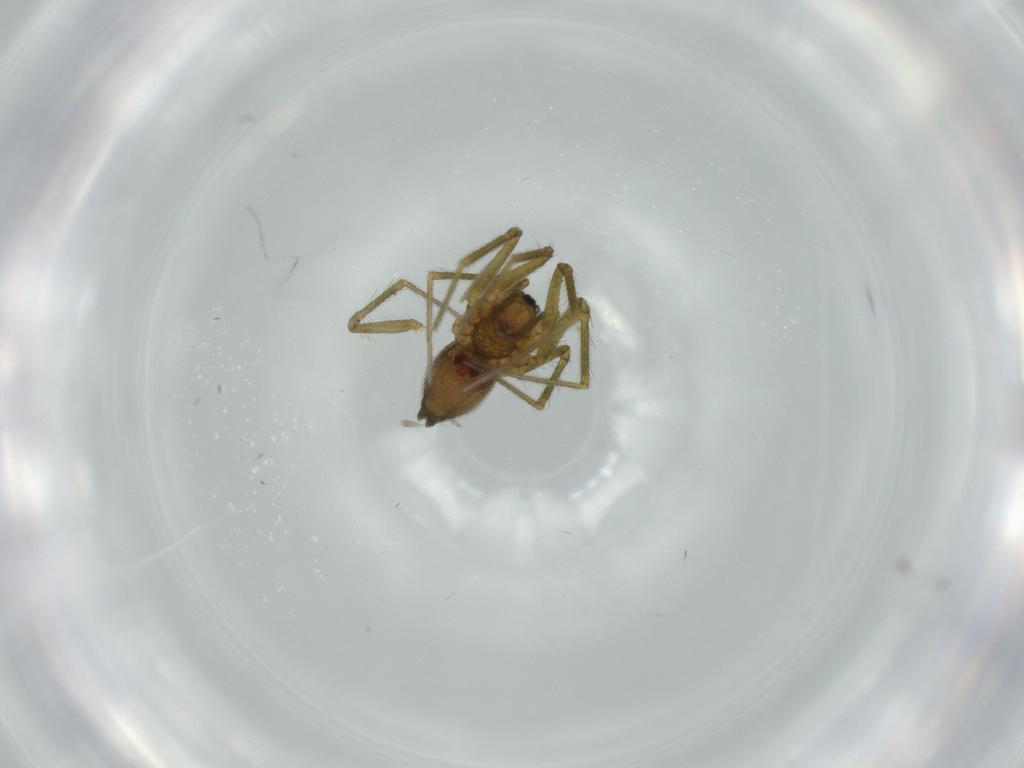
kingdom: Animalia
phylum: Arthropoda
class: Arachnida
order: Araneae
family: Linyphiidae
